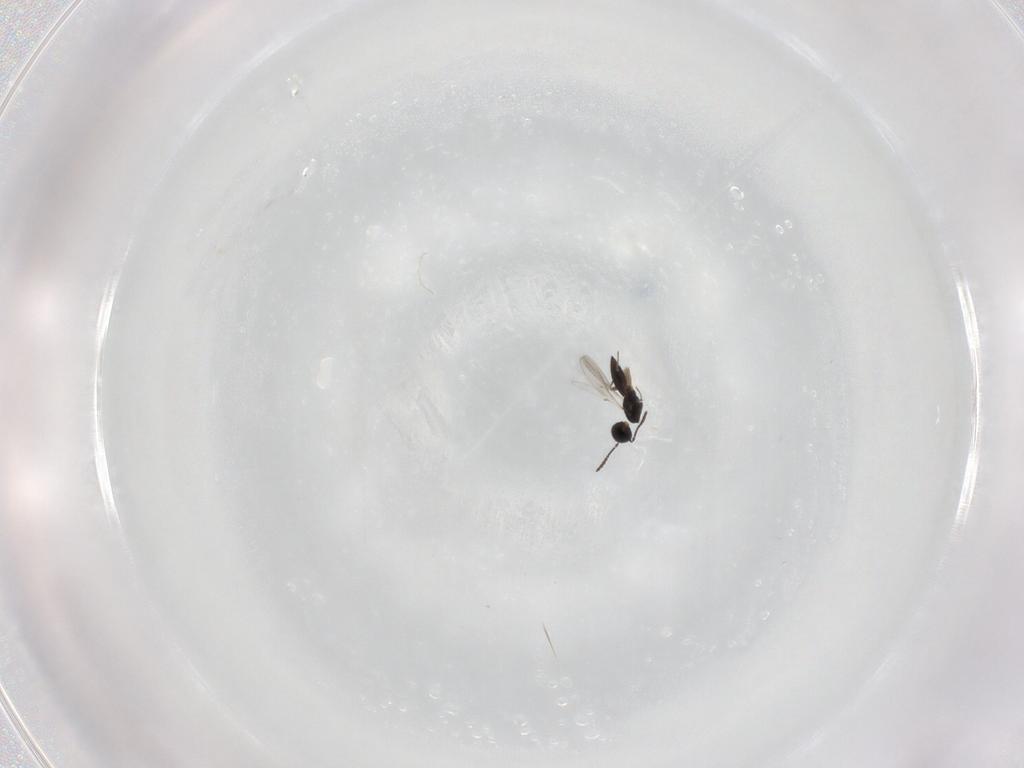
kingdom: Animalia
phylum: Arthropoda
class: Insecta
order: Hymenoptera
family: Scelionidae
